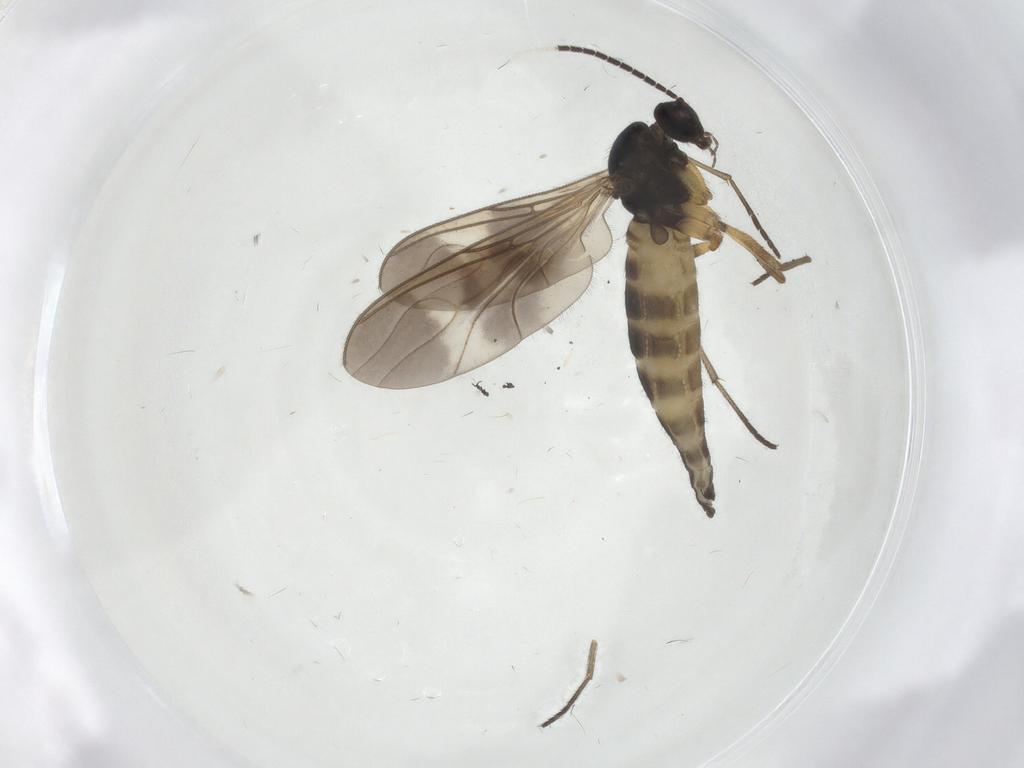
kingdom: Animalia
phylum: Arthropoda
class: Insecta
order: Diptera
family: Sciaridae
